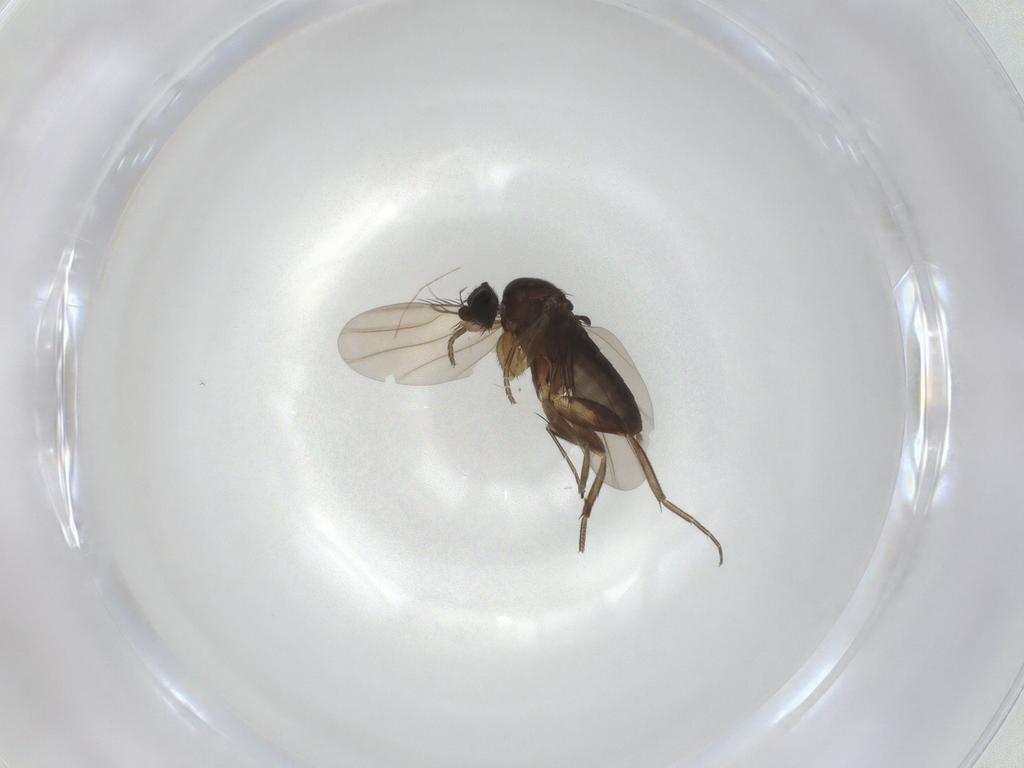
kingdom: Animalia
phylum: Arthropoda
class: Insecta
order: Diptera
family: Phoridae
